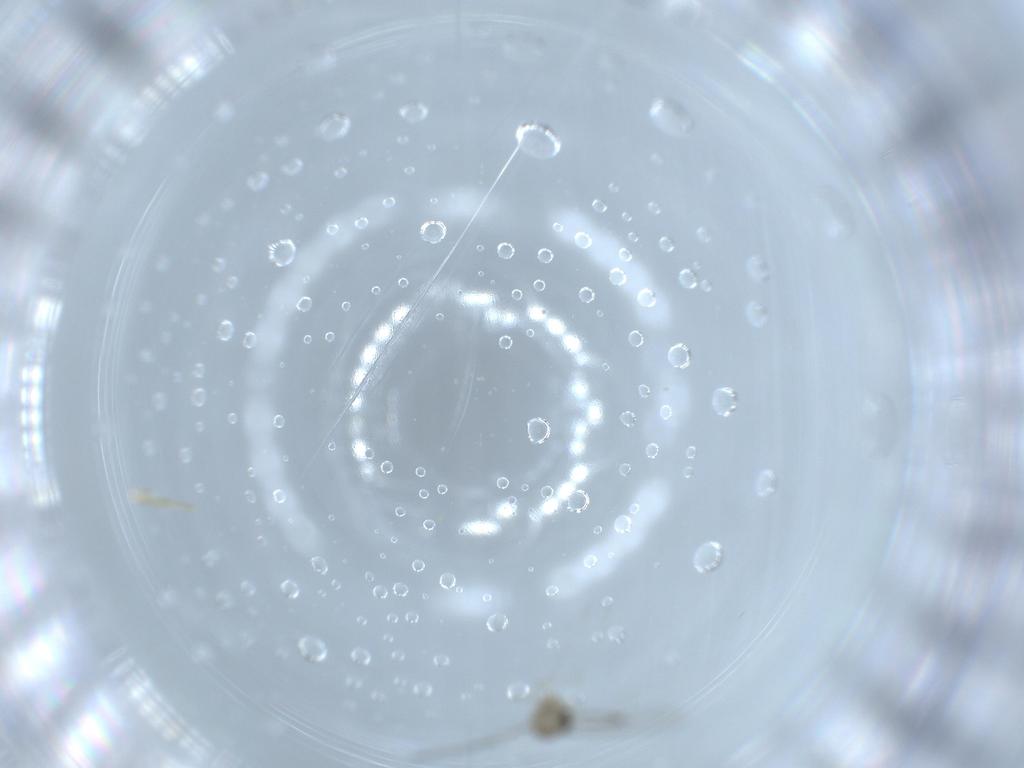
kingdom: Animalia
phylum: Arthropoda
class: Insecta
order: Diptera
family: Cecidomyiidae
